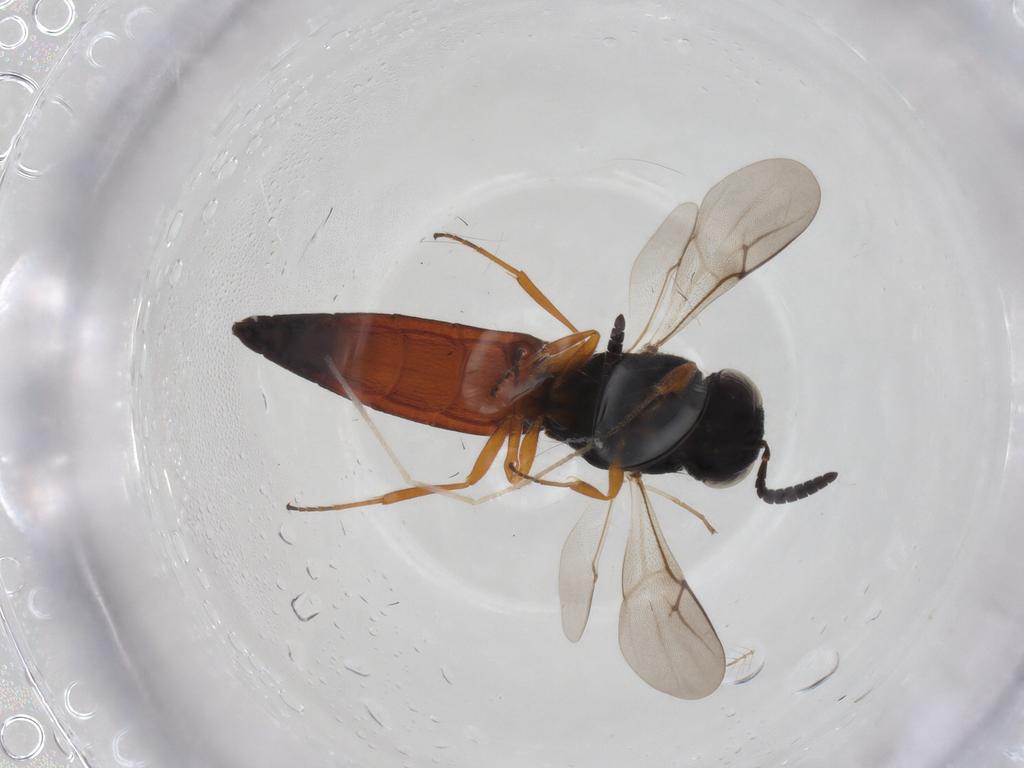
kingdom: Animalia
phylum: Arthropoda
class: Insecta
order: Hymenoptera
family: Scelionidae
